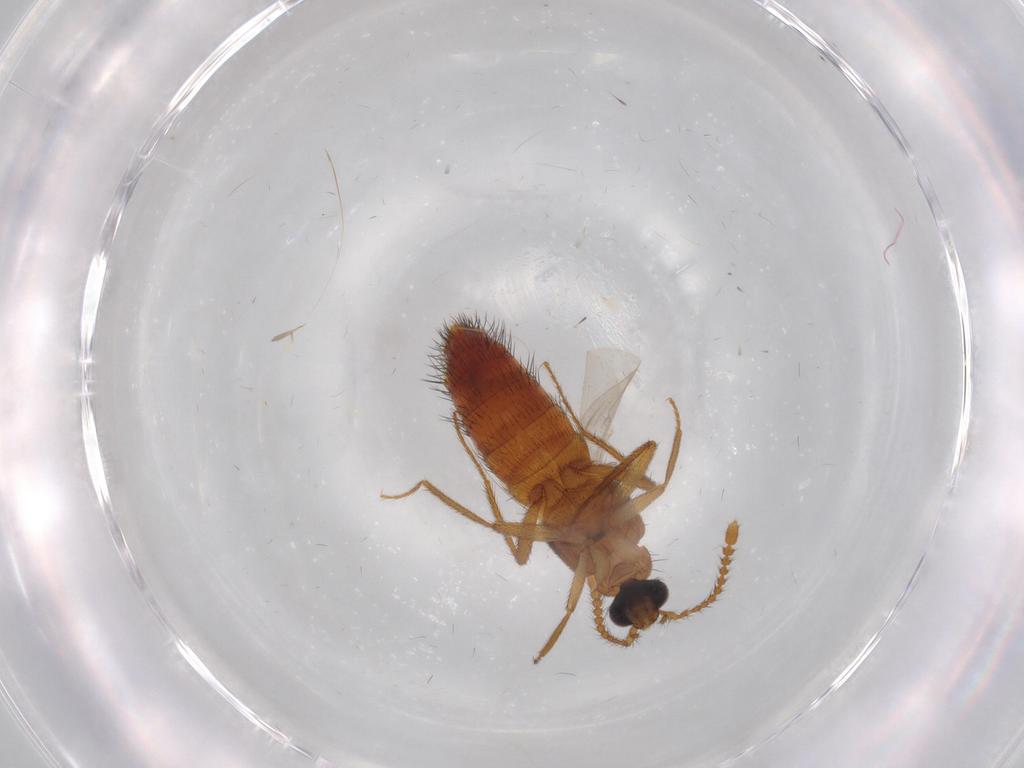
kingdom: Animalia
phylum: Arthropoda
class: Insecta
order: Coleoptera
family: Staphylinidae
